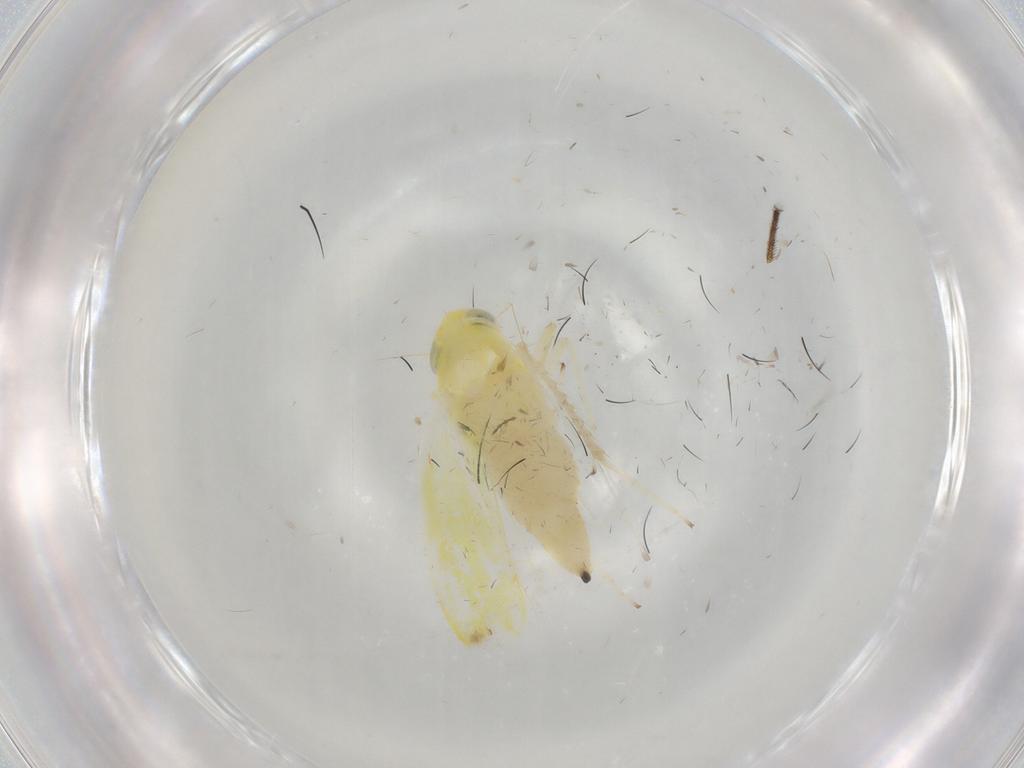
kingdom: Animalia
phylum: Arthropoda
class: Insecta
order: Hemiptera
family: Cicadellidae
